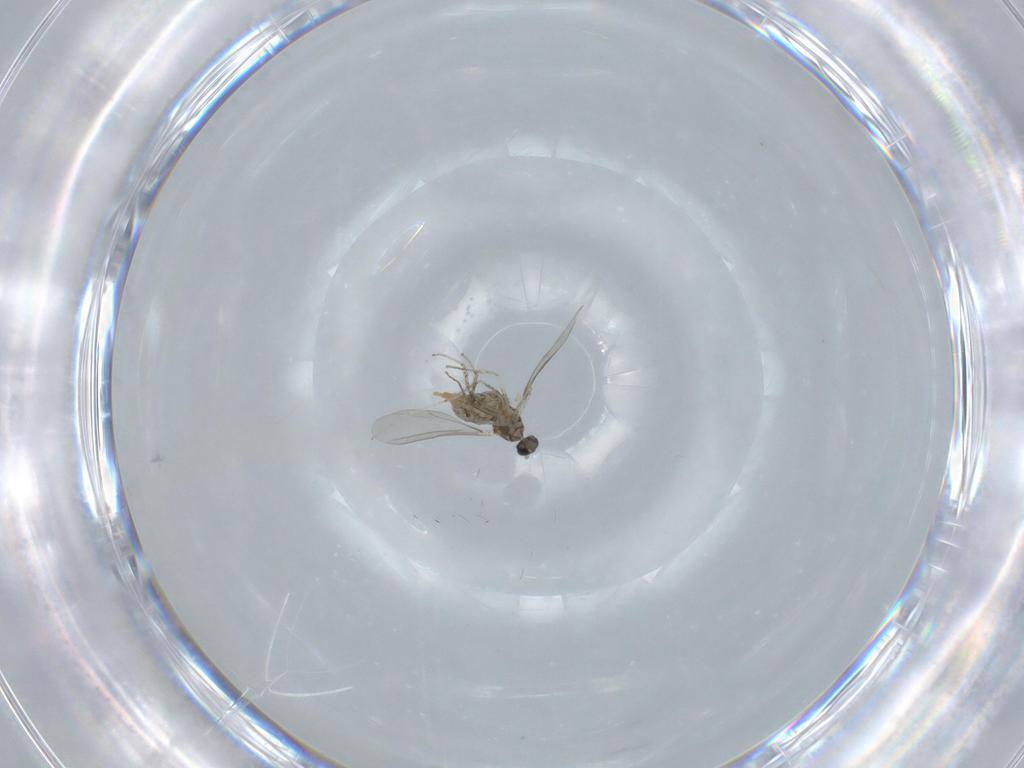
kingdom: Animalia
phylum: Arthropoda
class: Insecta
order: Diptera
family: Cecidomyiidae
